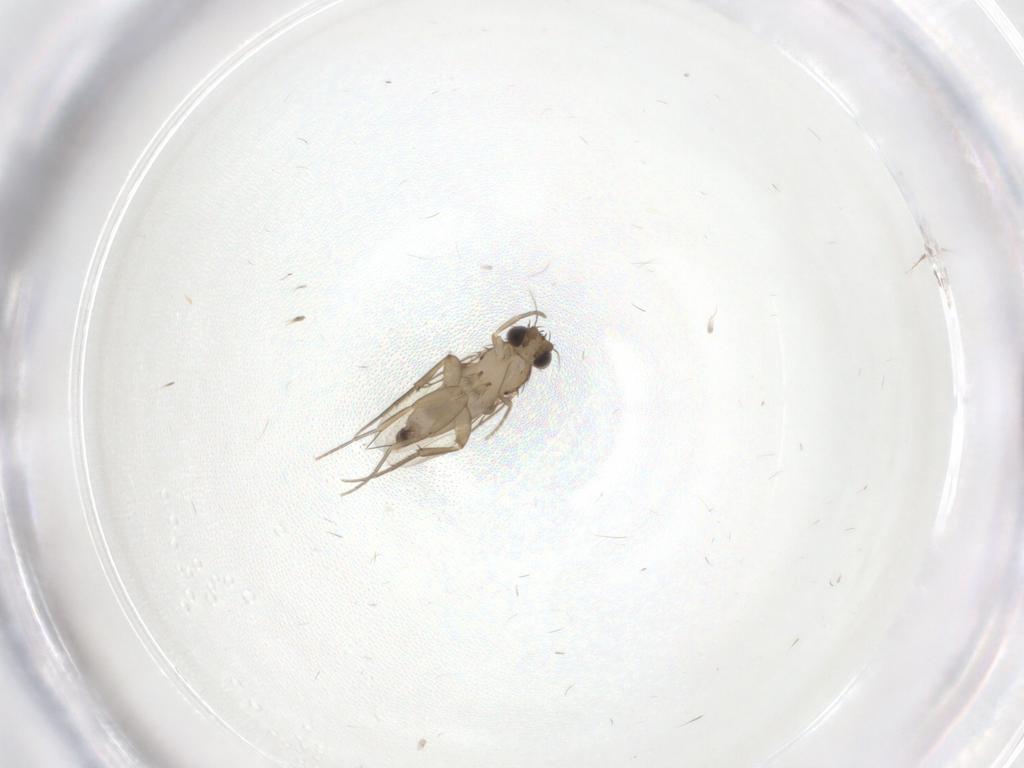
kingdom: Animalia
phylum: Arthropoda
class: Insecta
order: Diptera
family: Phoridae
